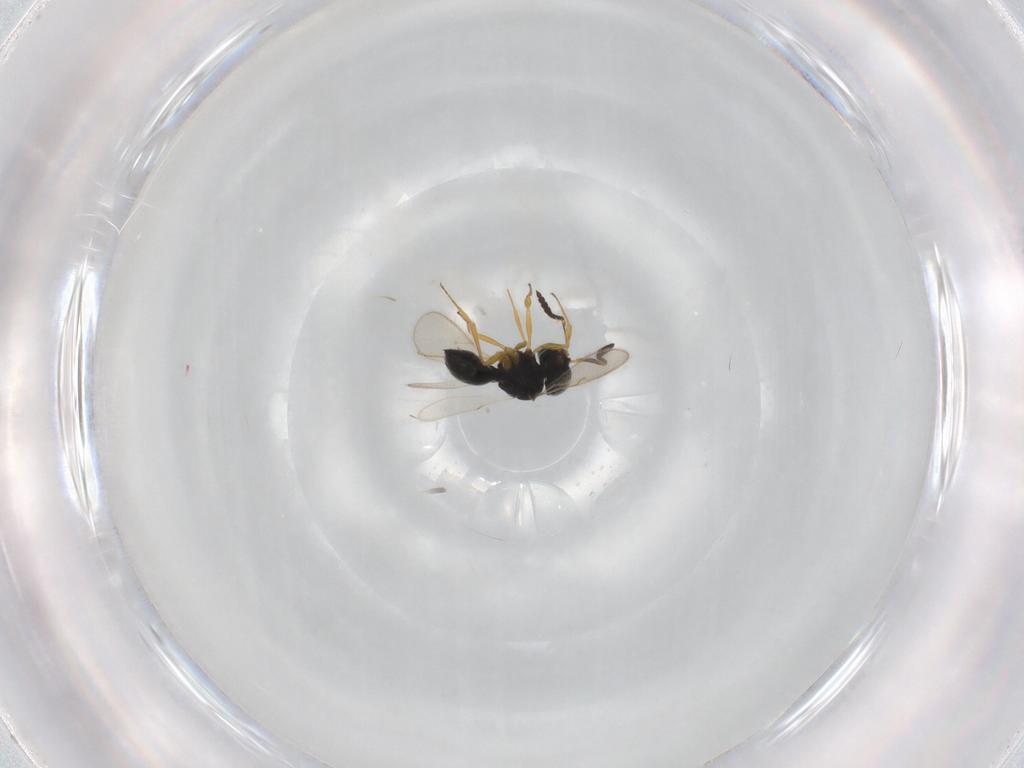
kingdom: Animalia
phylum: Arthropoda
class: Insecta
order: Hymenoptera
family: Scelionidae
